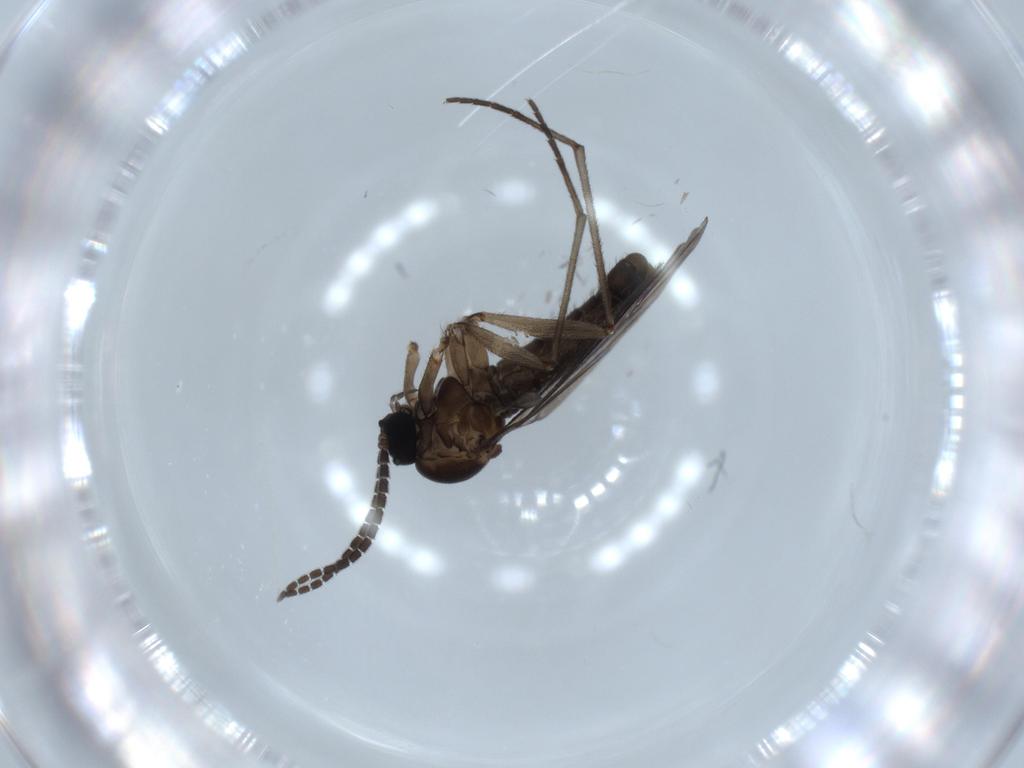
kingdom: Animalia
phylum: Arthropoda
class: Insecta
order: Diptera
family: Sciaridae
